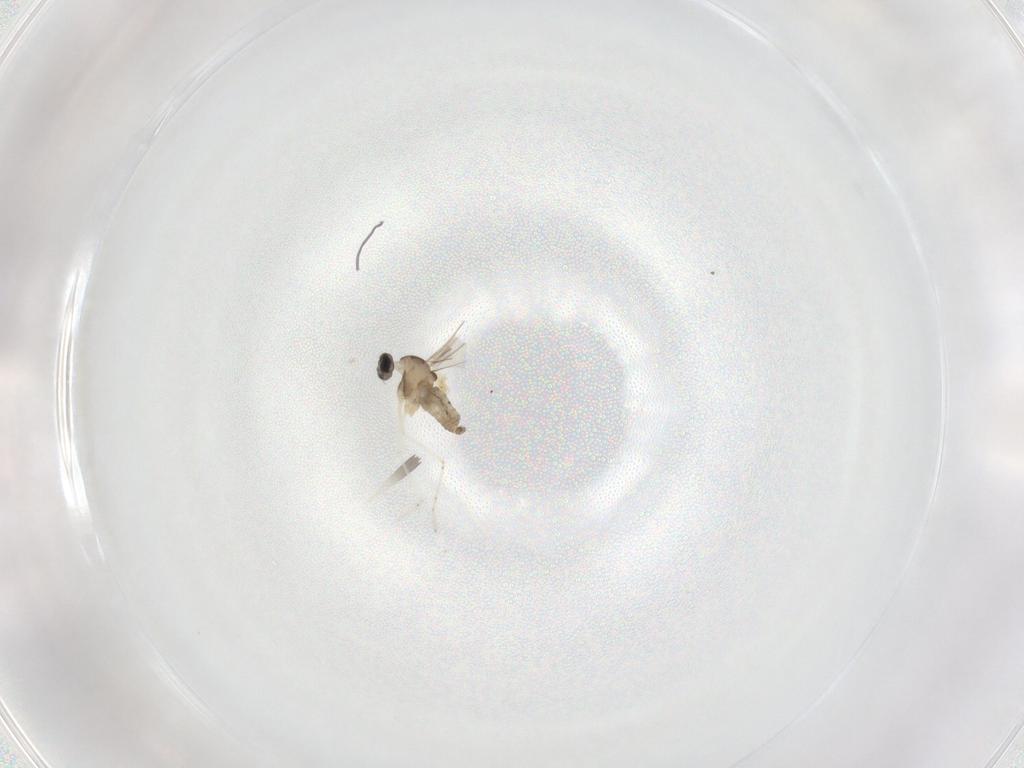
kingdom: Animalia
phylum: Arthropoda
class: Insecta
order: Diptera
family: Cecidomyiidae
